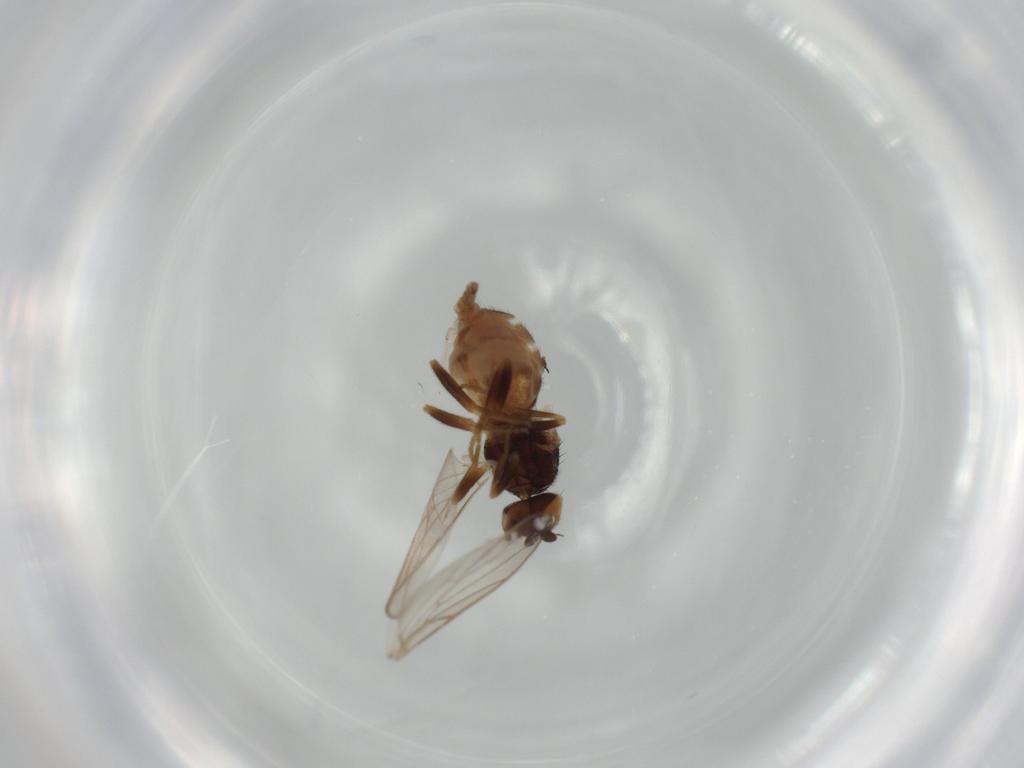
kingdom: Animalia
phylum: Arthropoda
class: Insecta
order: Diptera
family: Chloropidae
